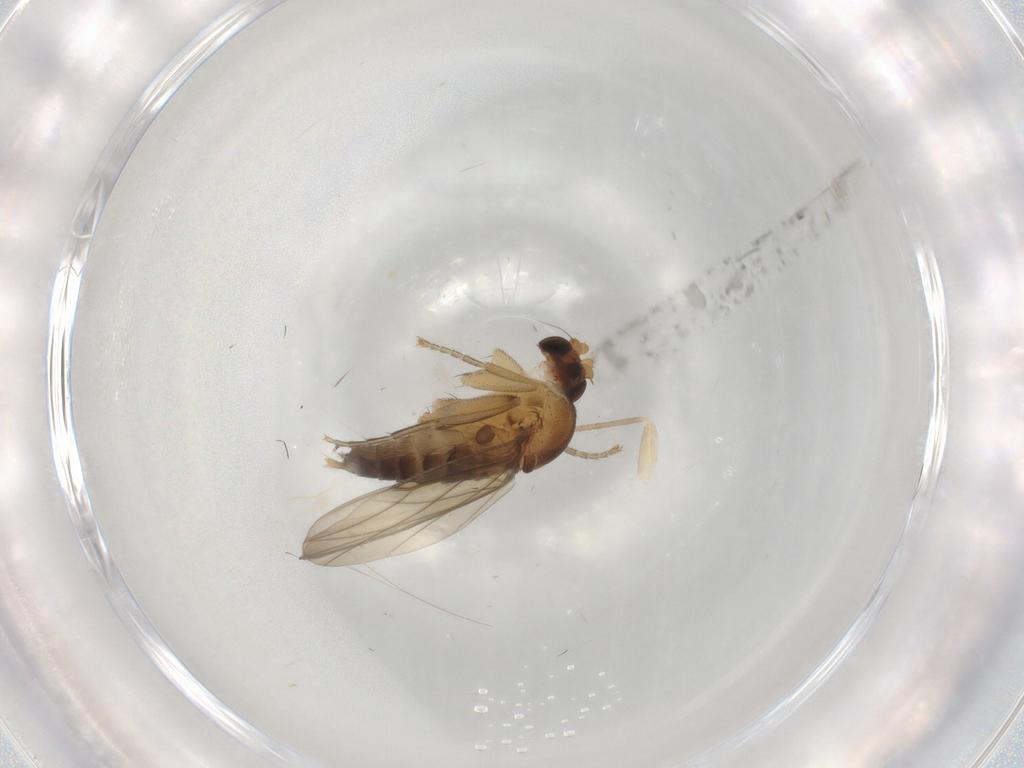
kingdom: Animalia
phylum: Arthropoda
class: Insecta
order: Diptera
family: Phoridae
